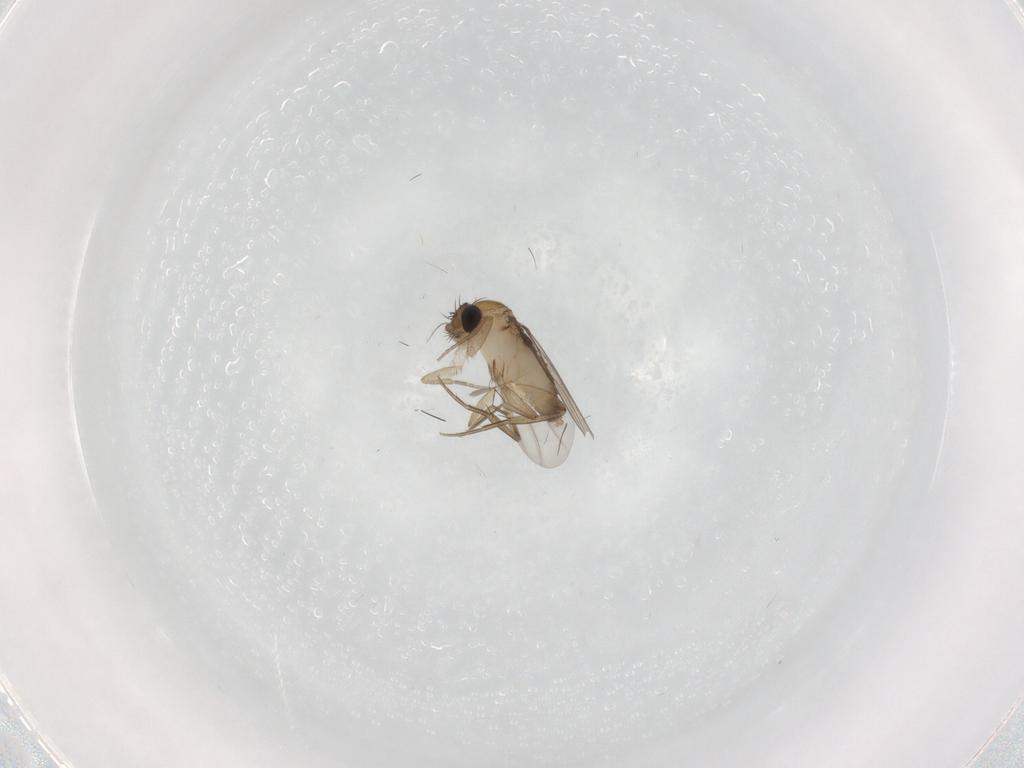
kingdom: Animalia
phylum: Arthropoda
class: Insecta
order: Diptera
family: Phoridae
